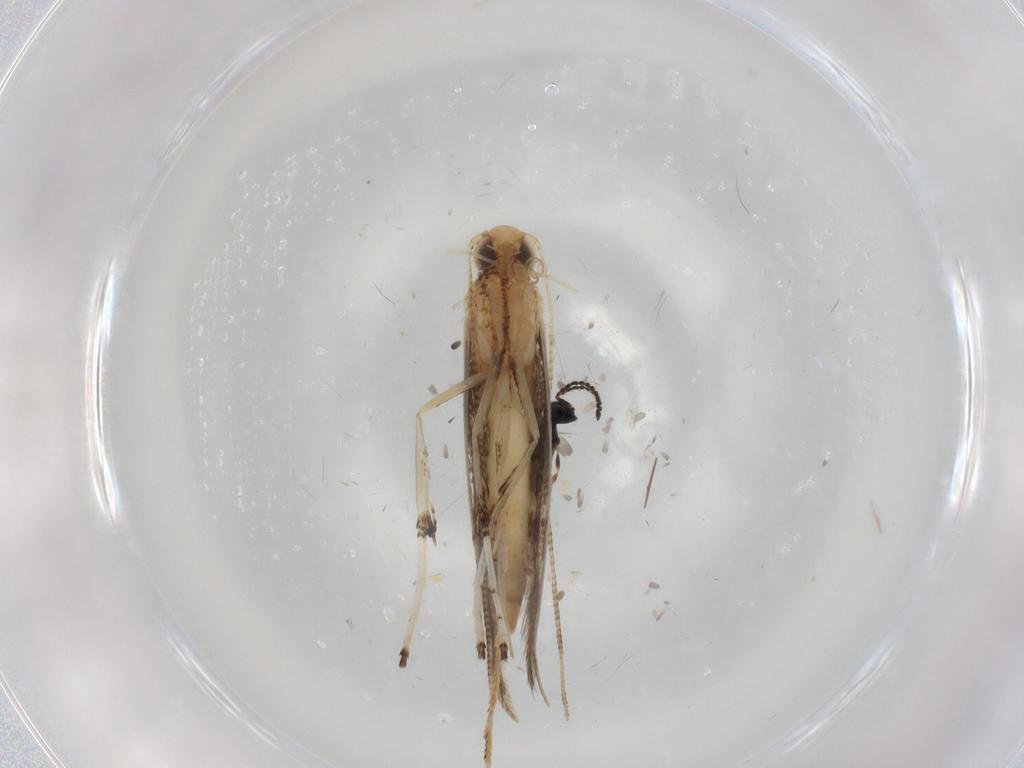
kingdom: Animalia
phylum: Arthropoda
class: Insecta
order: Lepidoptera
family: Gracillariidae
